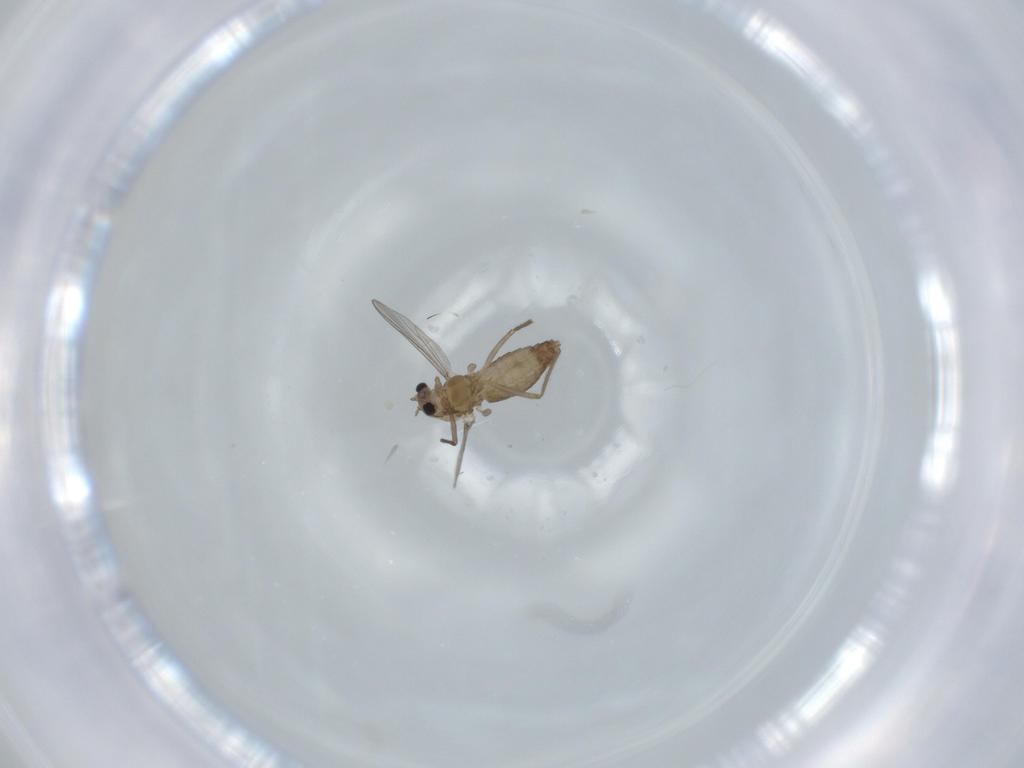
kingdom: Animalia
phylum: Arthropoda
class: Insecta
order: Diptera
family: Chironomidae
